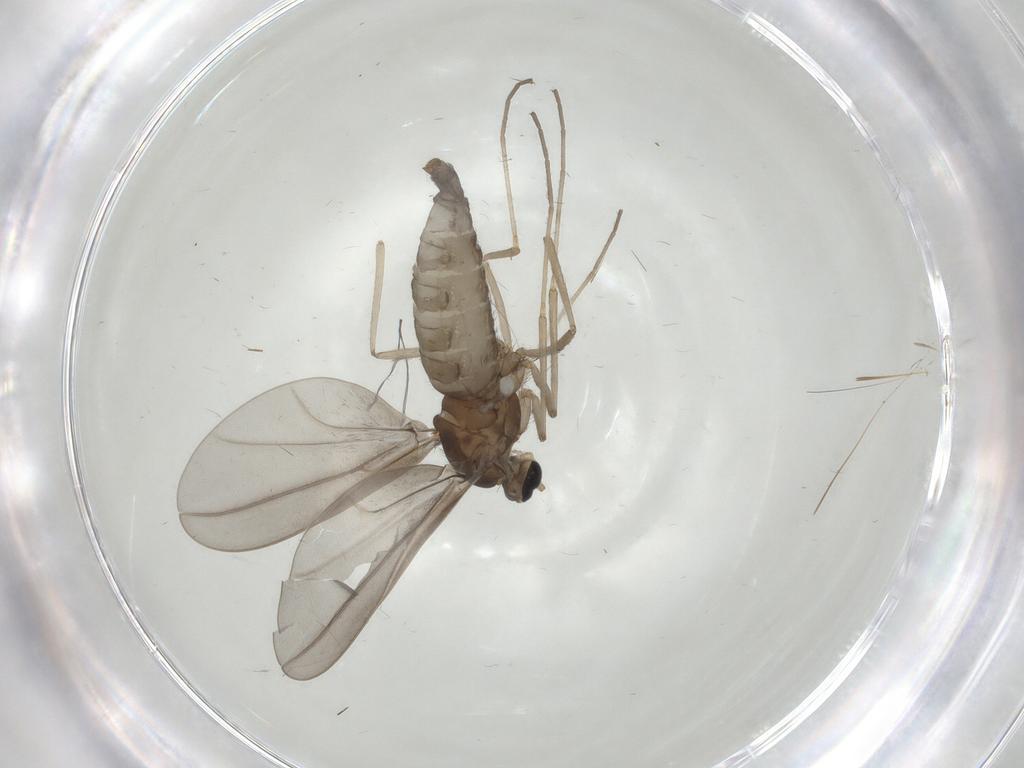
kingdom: Animalia
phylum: Arthropoda
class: Insecta
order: Diptera
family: Cecidomyiidae
